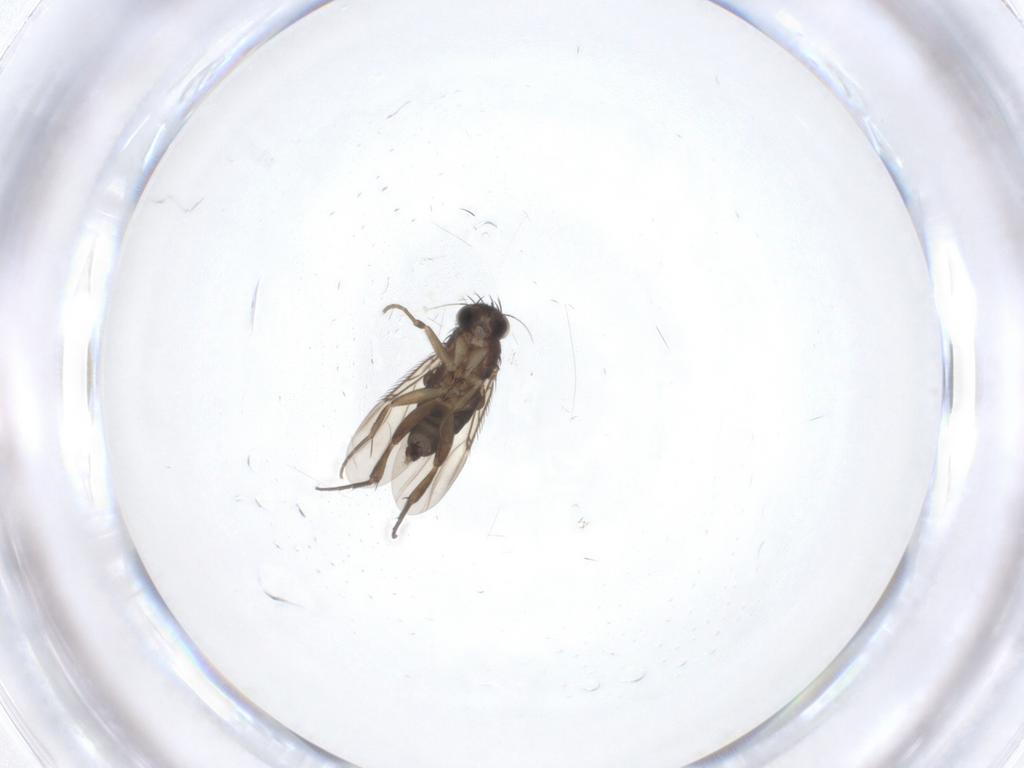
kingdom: Animalia
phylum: Arthropoda
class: Insecta
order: Diptera
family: Phoridae
